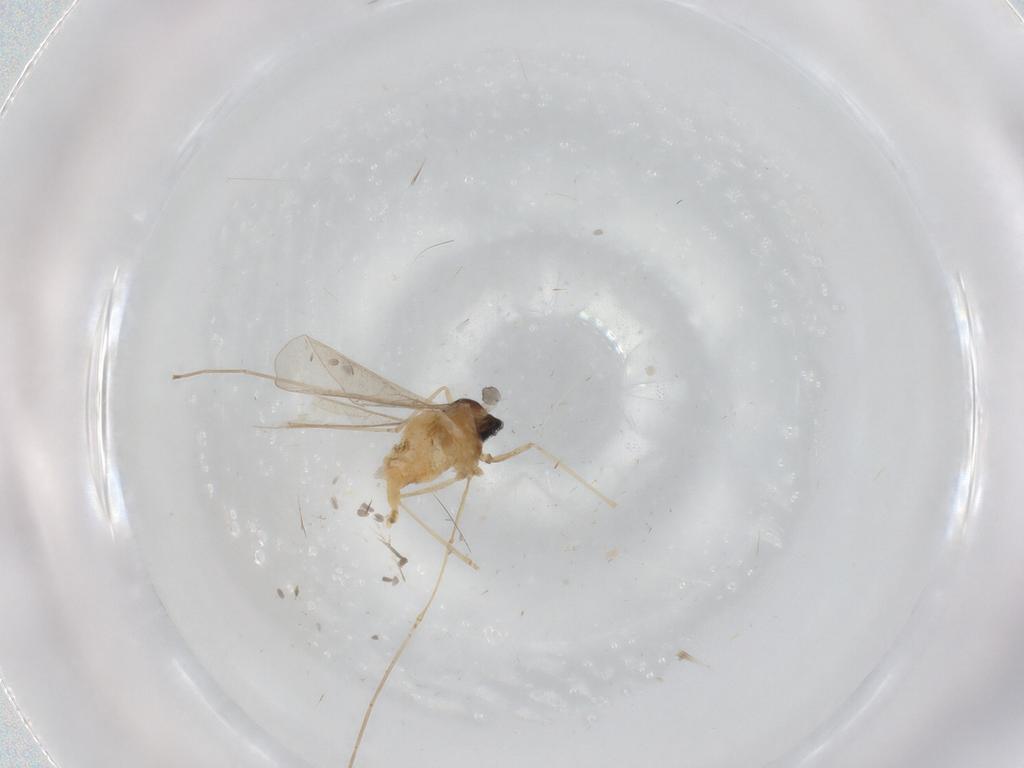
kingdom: Animalia
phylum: Arthropoda
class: Insecta
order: Diptera
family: Cecidomyiidae
